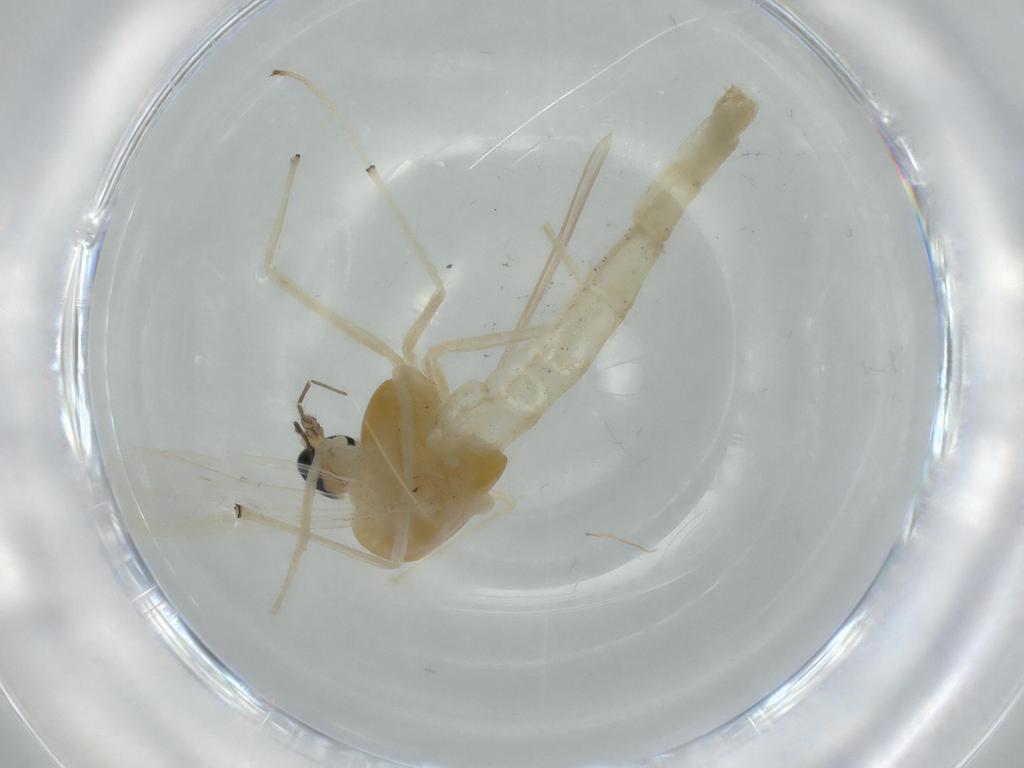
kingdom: Animalia
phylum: Arthropoda
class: Insecta
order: Diptera
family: Chironomidae
